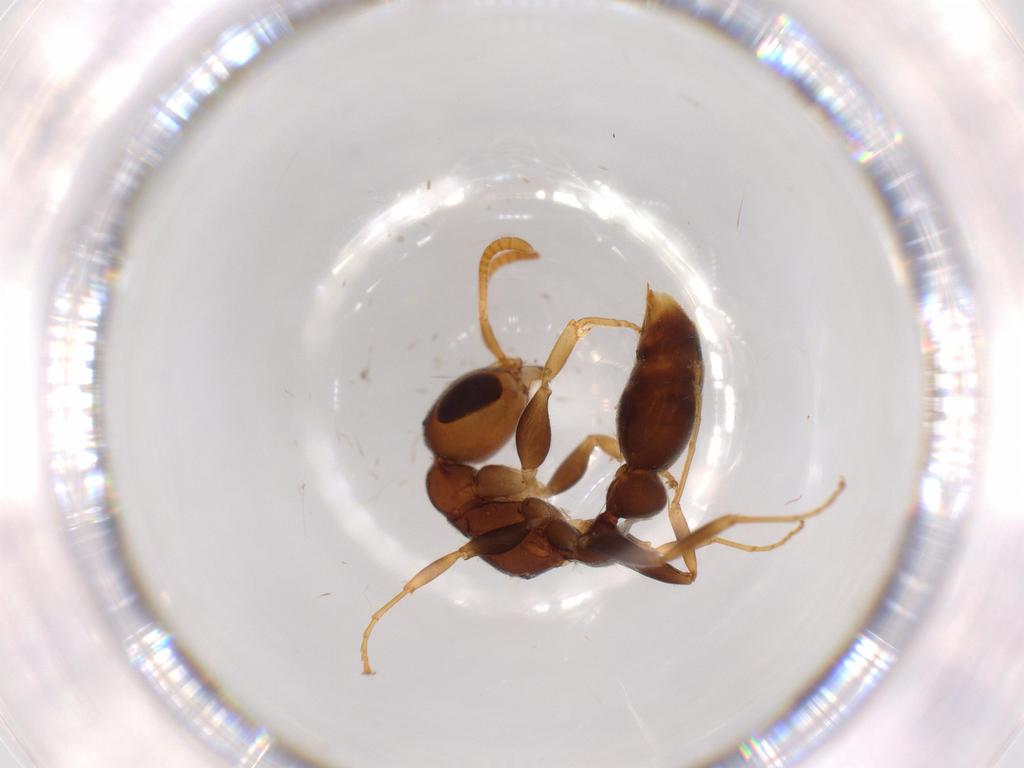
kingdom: Animalia
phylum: Arthropoda
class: Insecta
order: Hymenoptera
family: Formicidae
